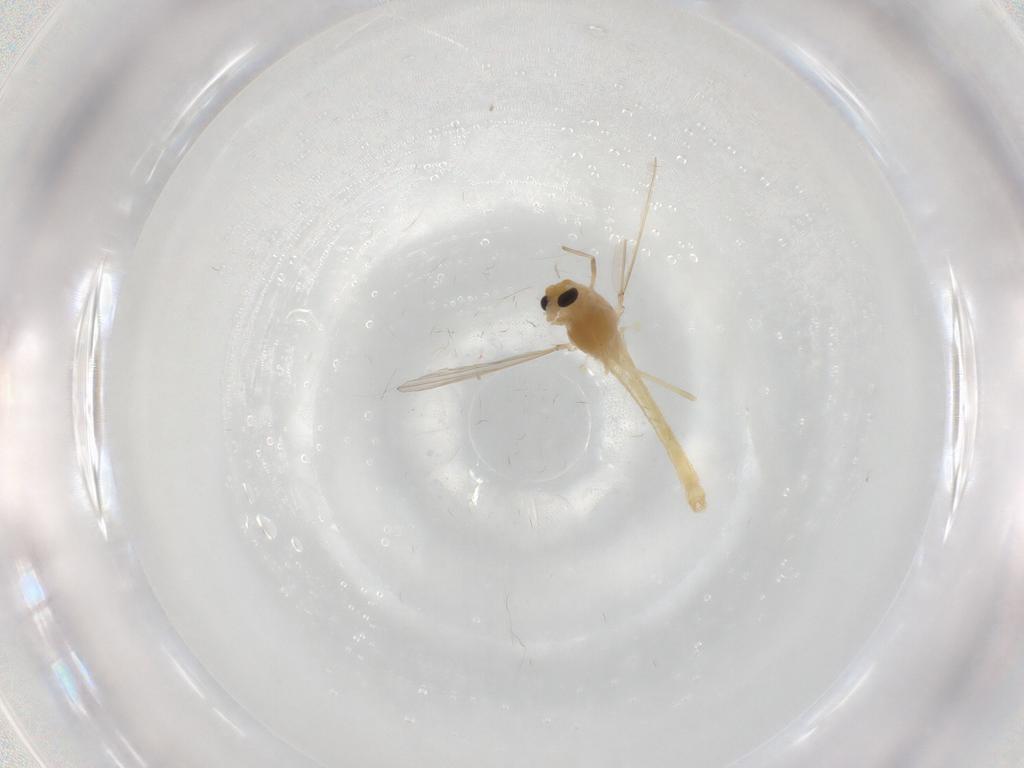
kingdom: Animalia
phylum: Arthropoda
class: Insecta
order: Diptera
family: Chironomidae
